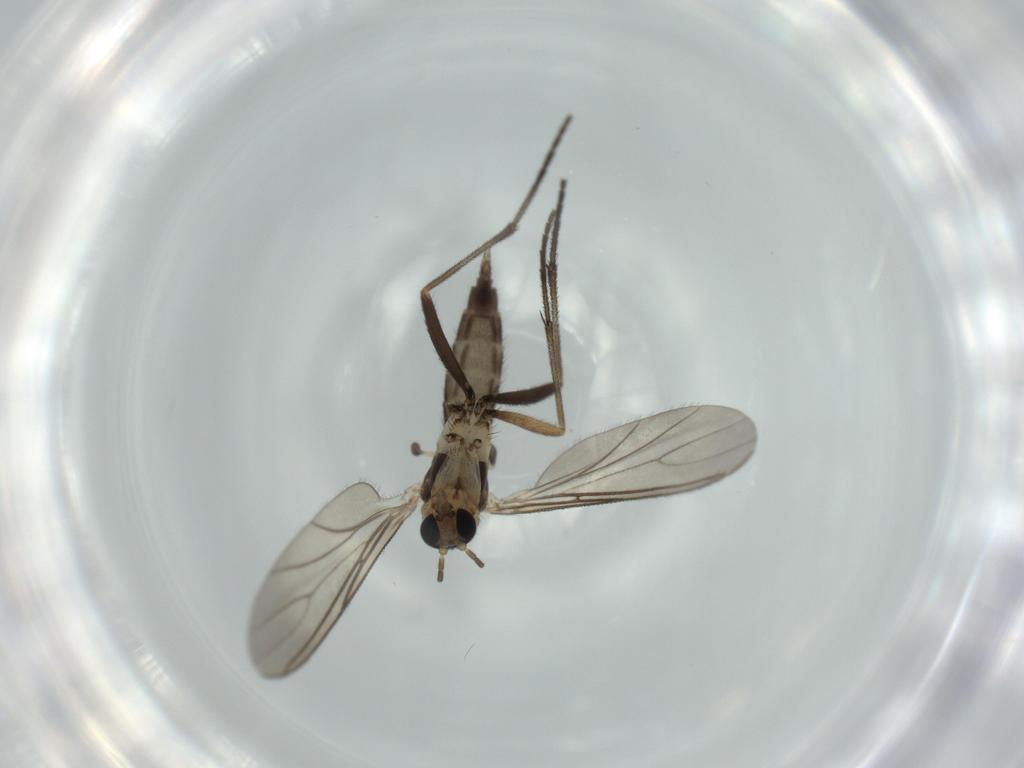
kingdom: Animalia
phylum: Arthropoda
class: Insecta
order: Diptera
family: Sciaridae
